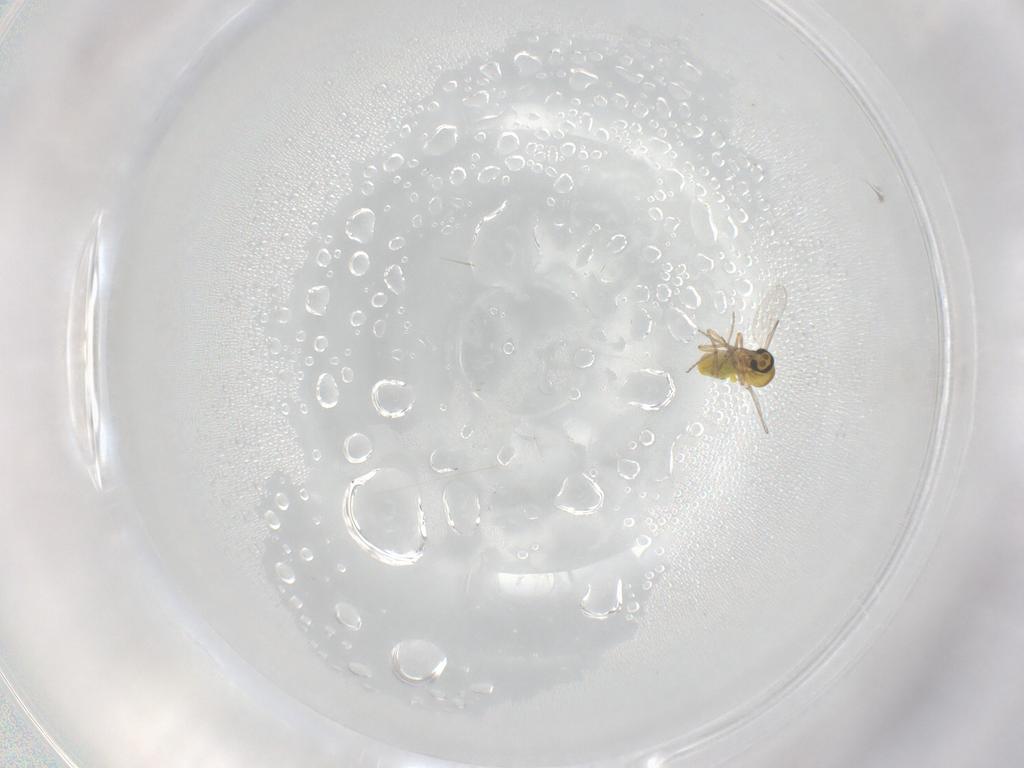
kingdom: Animalia
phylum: Arthropoda
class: Insecta
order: Diptera
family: Ceratopogonidae
